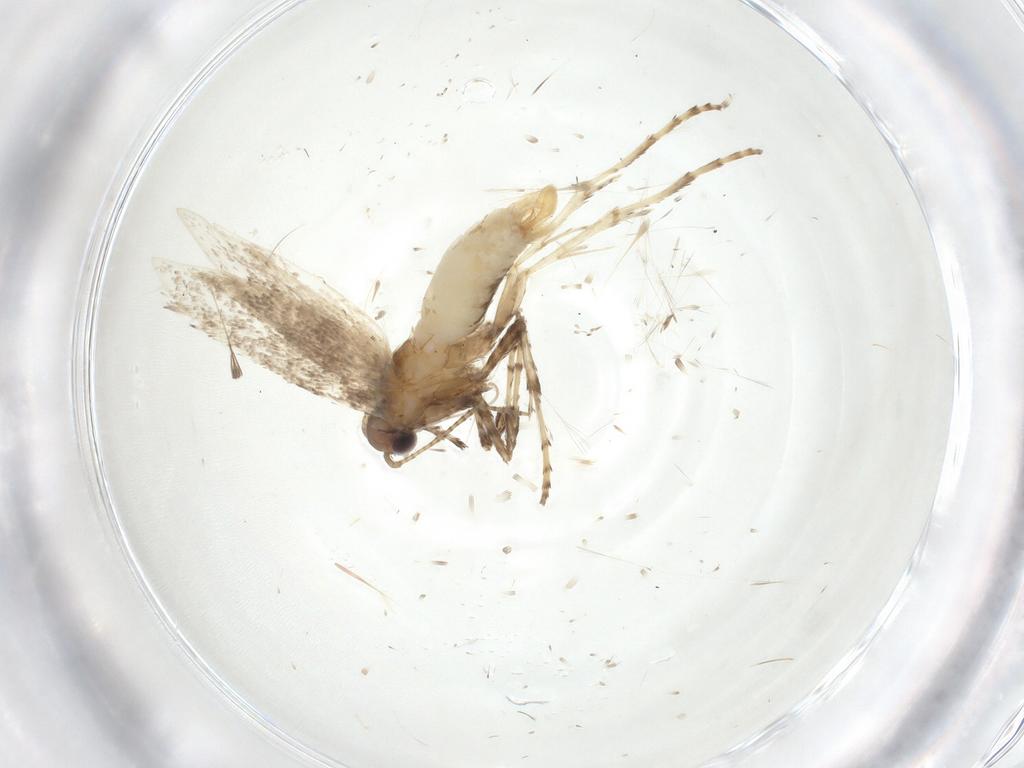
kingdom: Animalia
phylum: Arthropoda
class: Insecta
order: Lepidoptera
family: Gracillariidae
